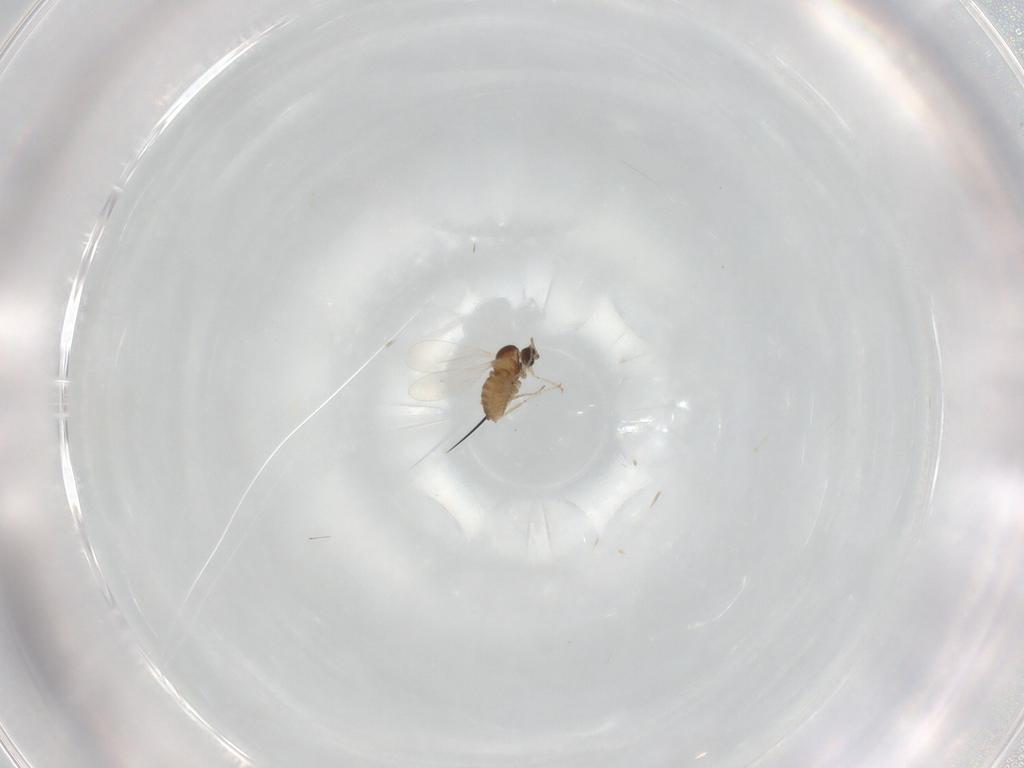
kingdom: Animalia
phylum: Arthropoda
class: Insecta
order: Diptera
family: Cecidomyiidae
